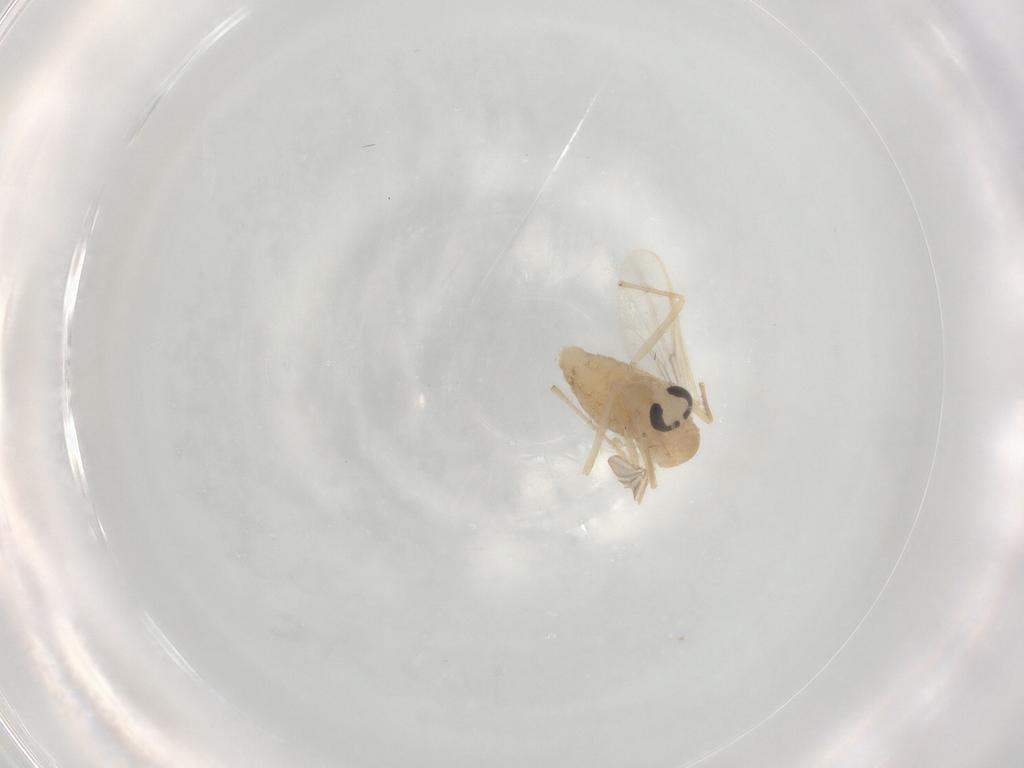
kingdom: Animalia
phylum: Arthropoda
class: Insecta
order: Diptera
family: Chironomidae
